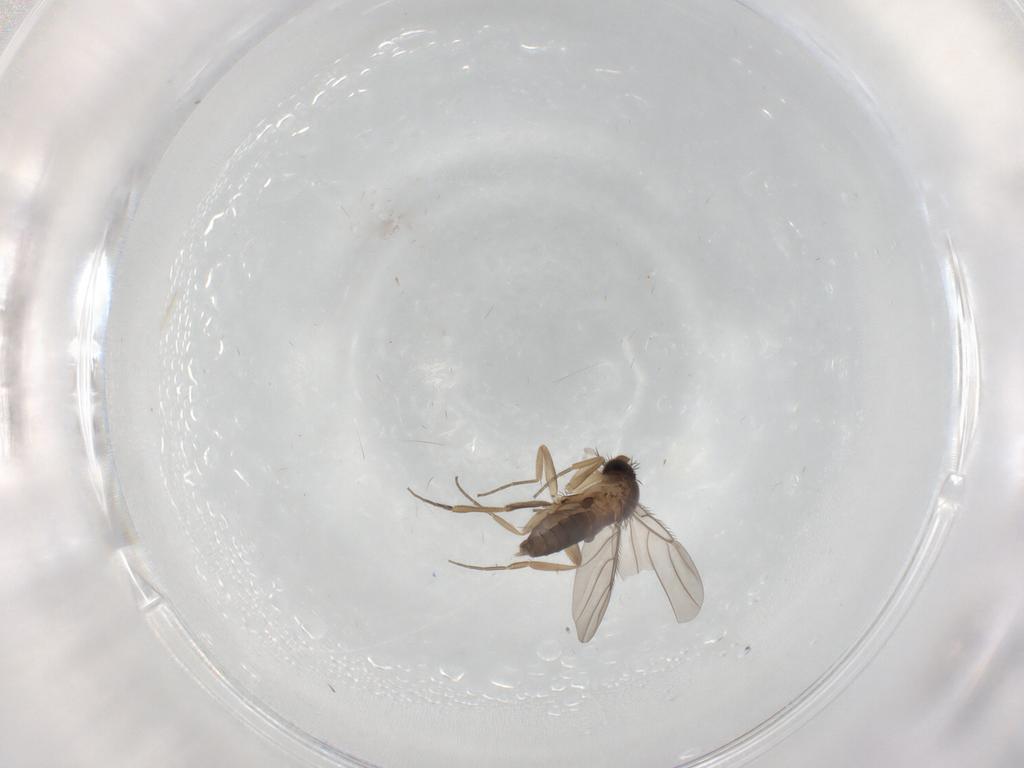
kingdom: Animalia
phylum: Arthropoda
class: Insecta
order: Diptera
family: Phoridae
